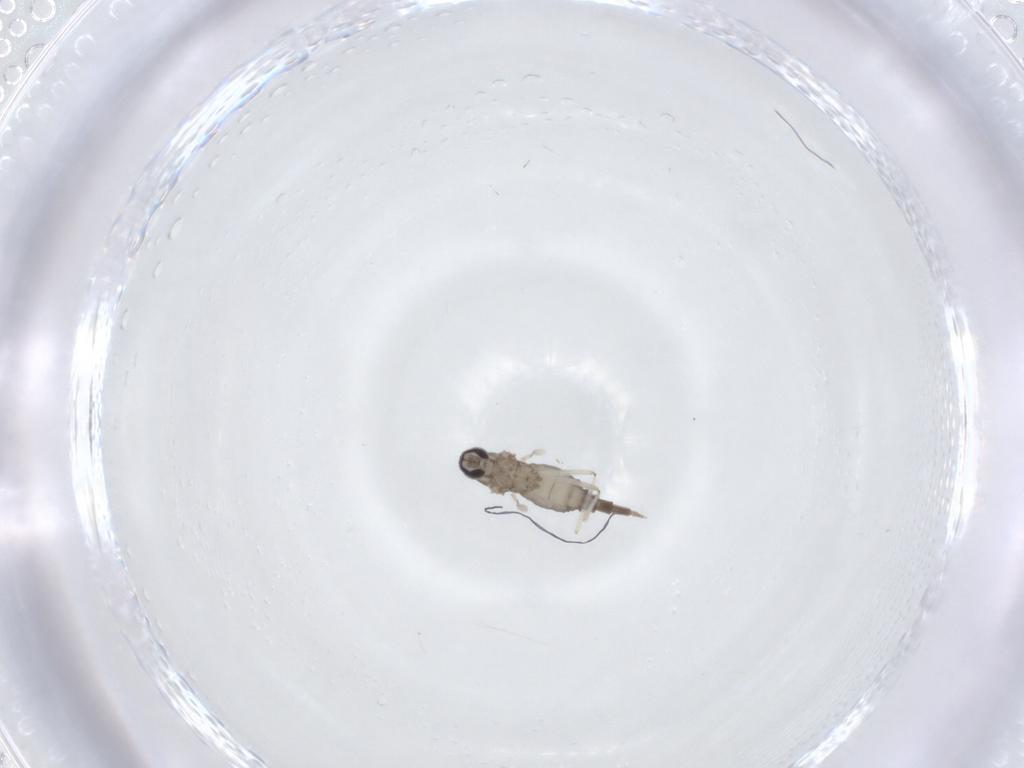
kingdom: Animalia
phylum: Arthropoda
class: Insecta
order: Diptera
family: Cecidomyiidae
